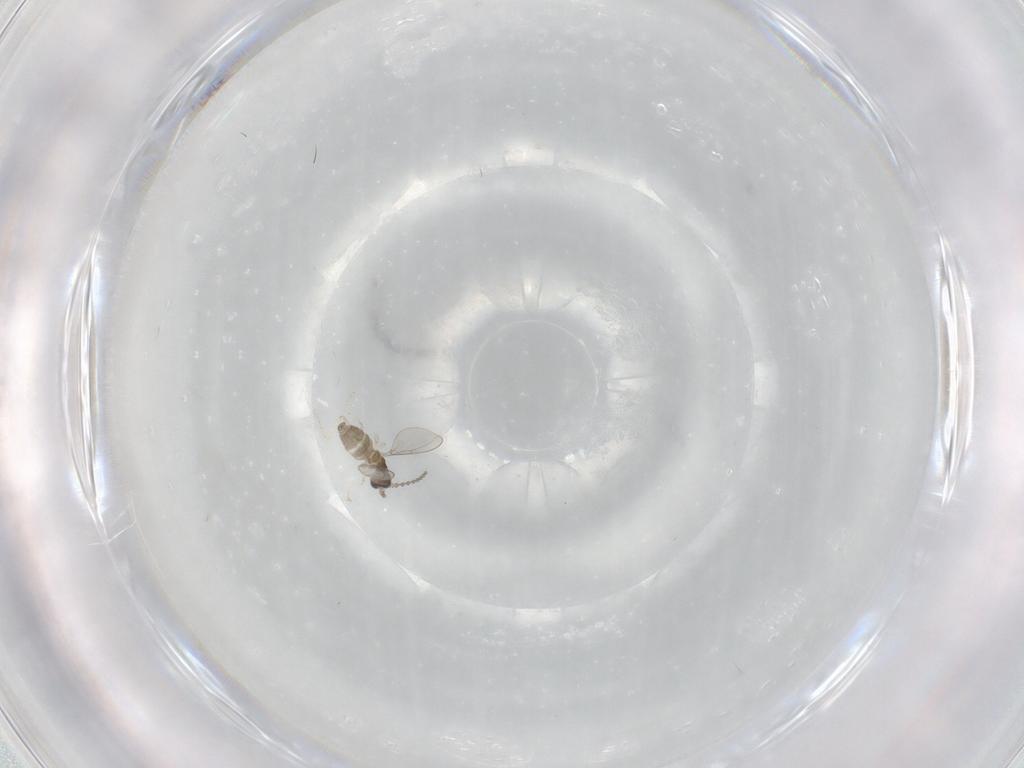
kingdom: Animalia
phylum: Arthropoda
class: Insecta
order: Diptera
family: Cecidomyiidae
